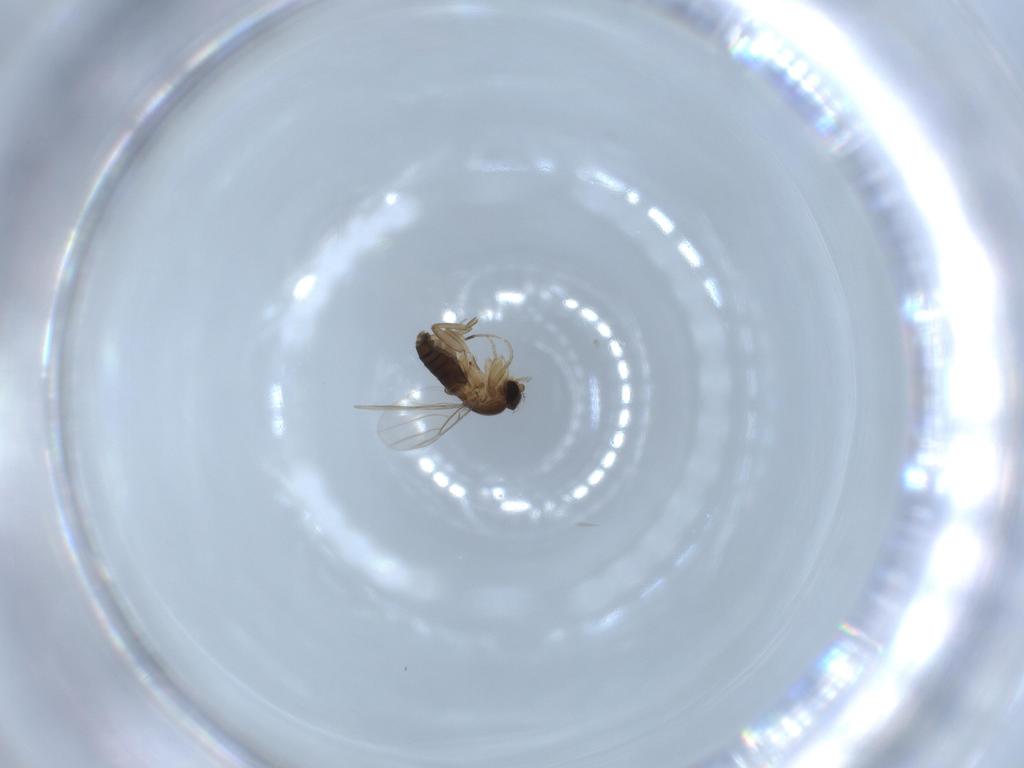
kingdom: Animalia
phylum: Arthropoda
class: Insecta
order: Diptera
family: Phoridae
